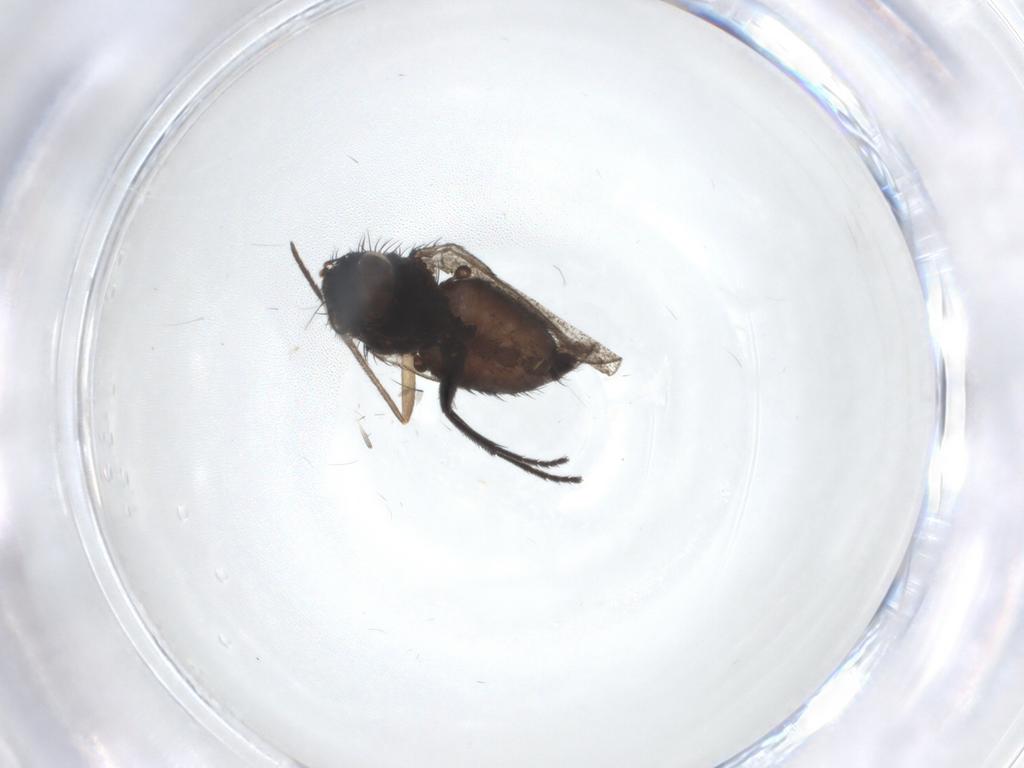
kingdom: Animalia
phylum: Arthropoda
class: Insecta
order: Diptera
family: Milichiidae
